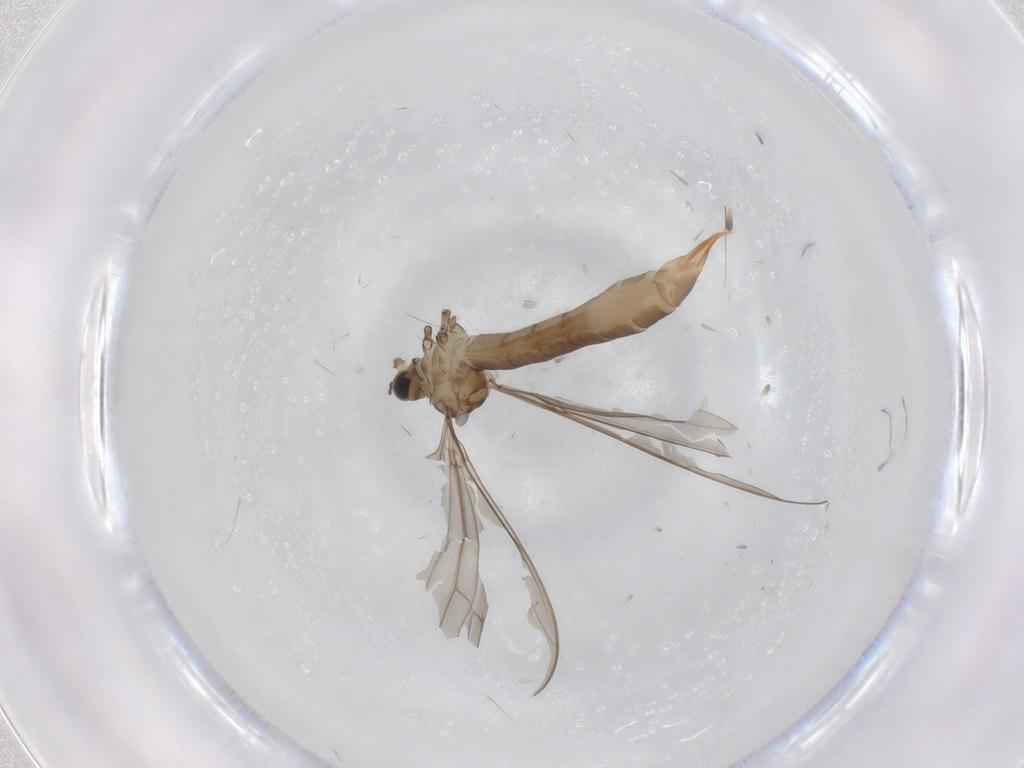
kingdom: Animalia
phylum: Arthropoda
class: Insecta
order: Diptera
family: Limoniidae
